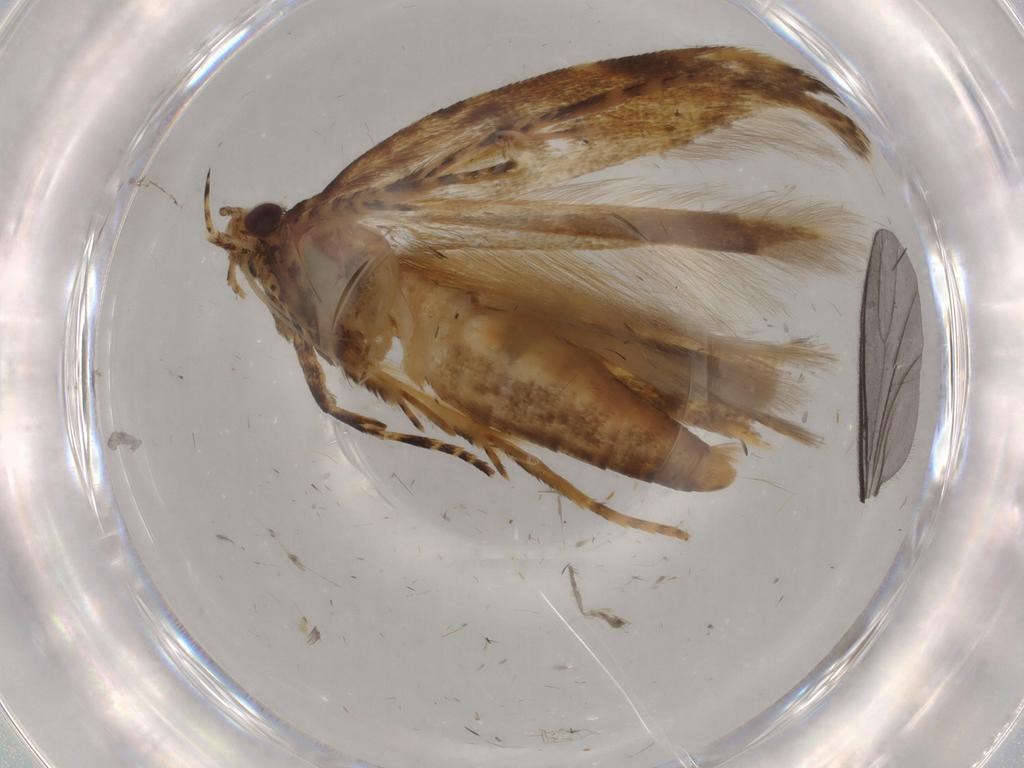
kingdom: Animalia
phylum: Arthropoda
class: Insecta
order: Lepidoptera
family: Gelechiidae
